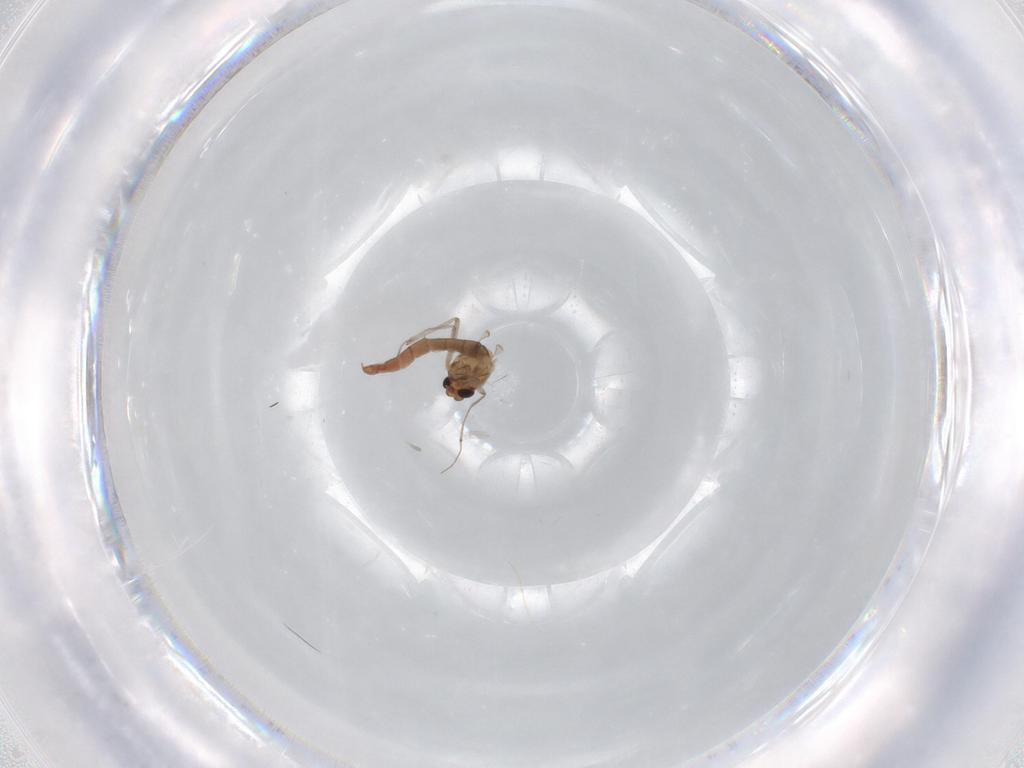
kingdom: Animalia
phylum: Arthropoda
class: Insecta
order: Diptera
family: Chironomidae
